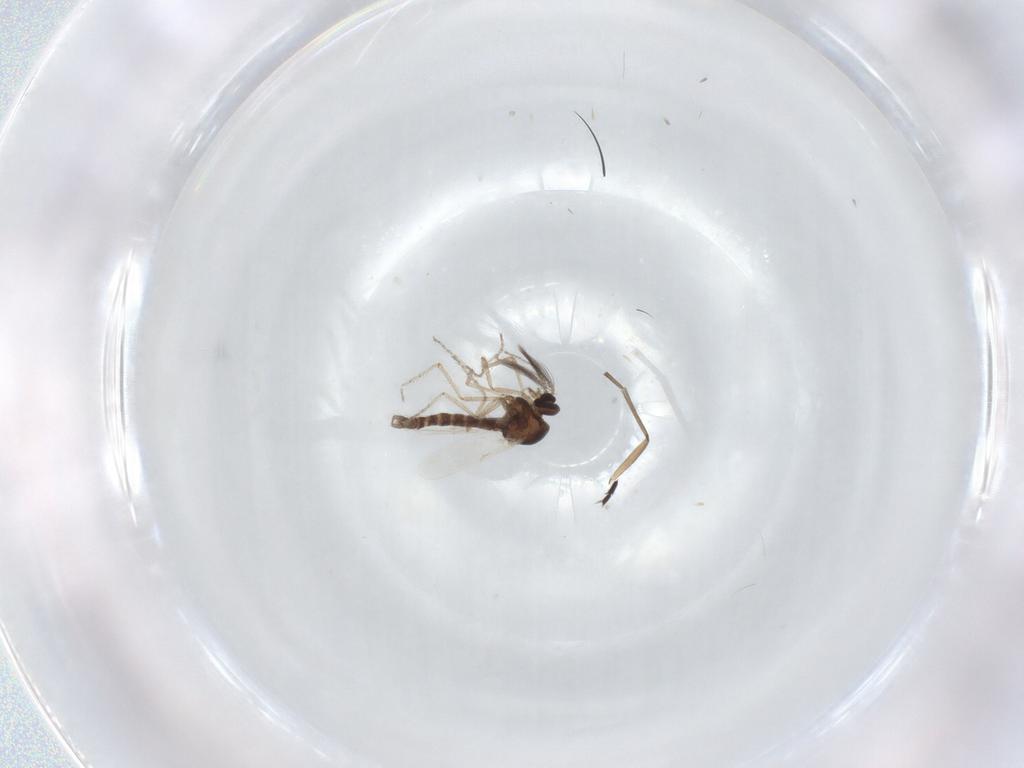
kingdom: Animalia
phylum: Arthropoda
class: Insecta
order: Diptera
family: Ceratopogonidae
